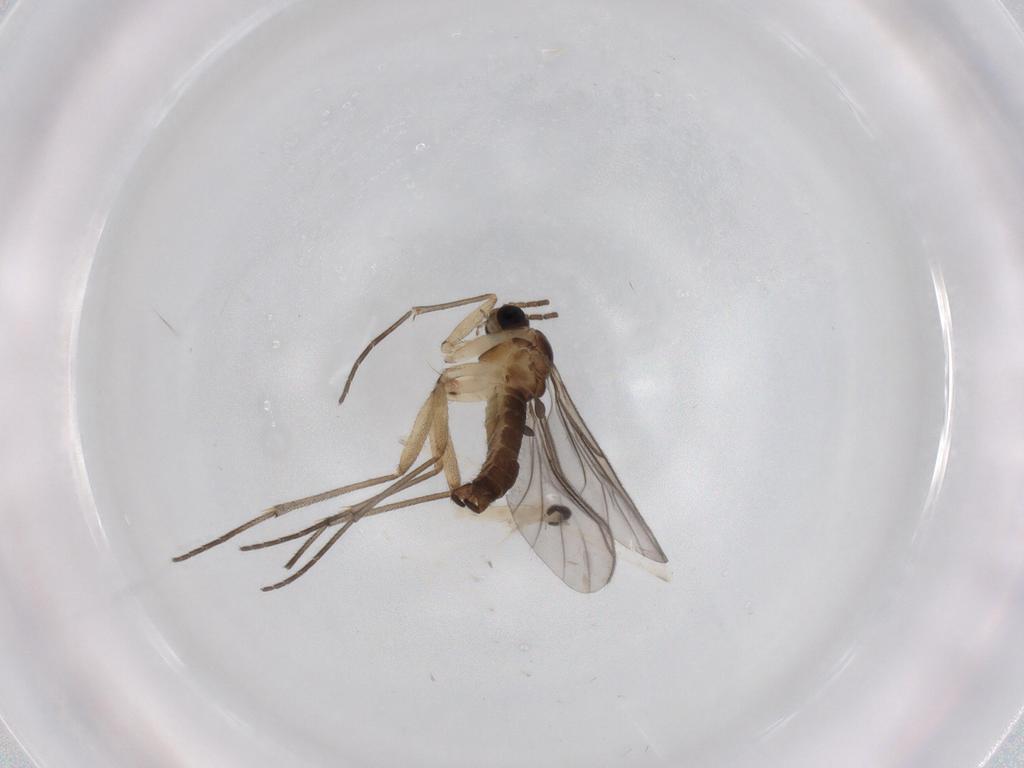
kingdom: Animalia
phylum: Arthropoda
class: Insecta
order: Diptera
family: Sciaridae
